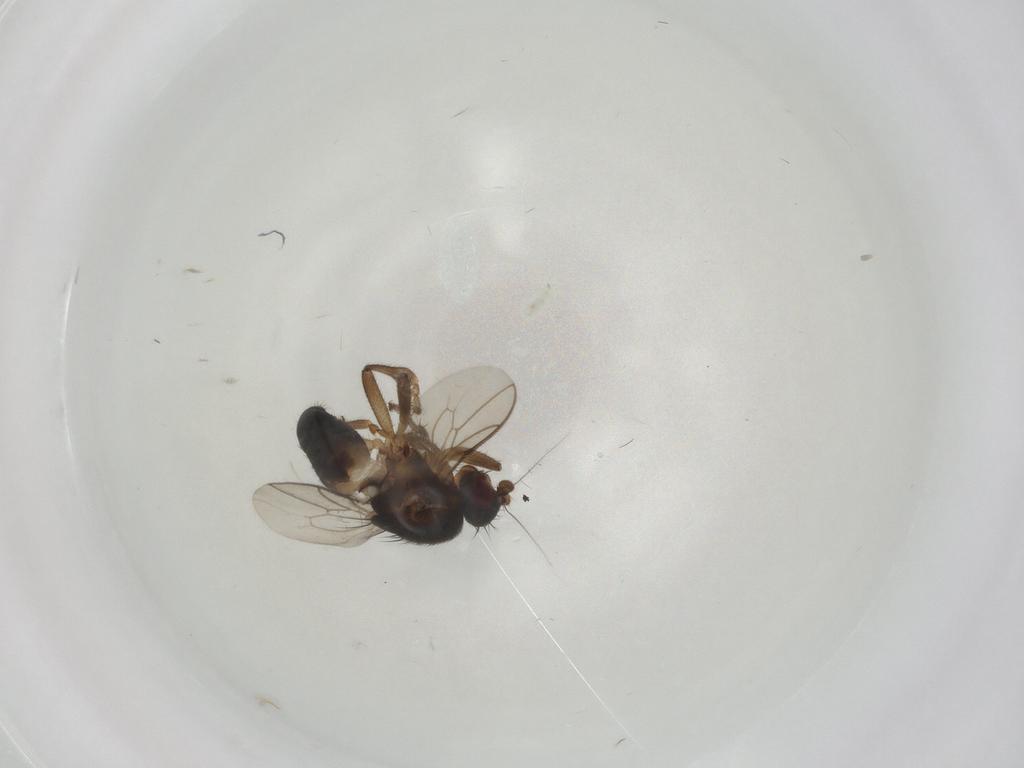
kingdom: Animalia
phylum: Arthropoda
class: Insecta
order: Diptera
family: Sphaeroceridae
